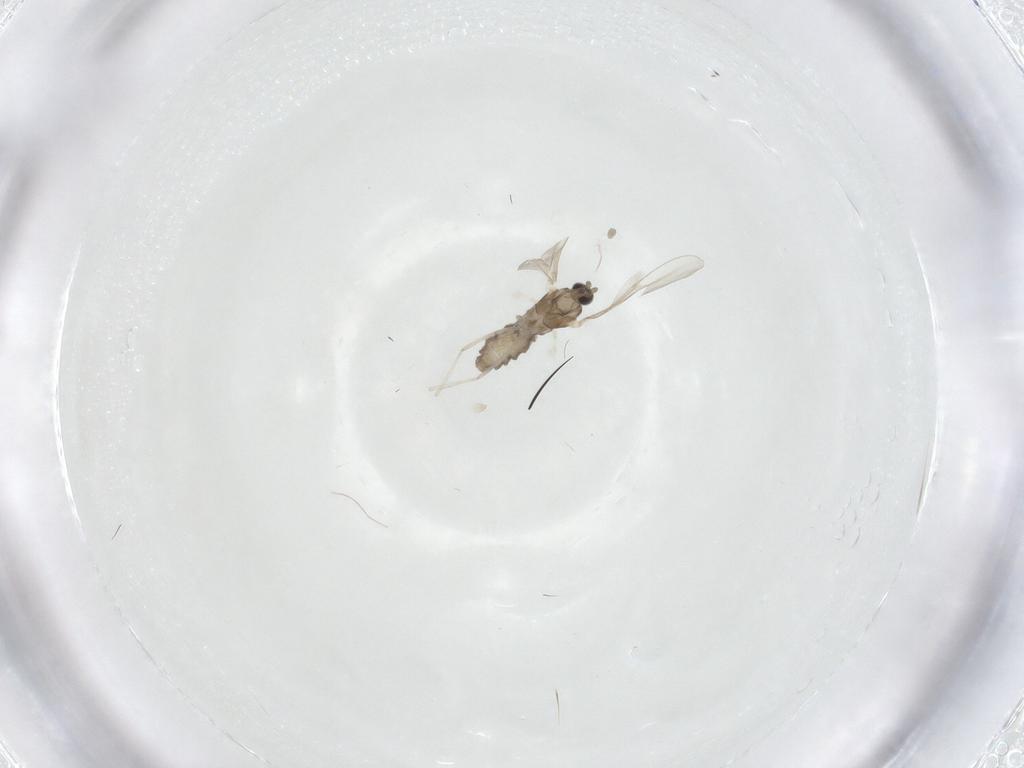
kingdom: Animalia
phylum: Arthropoda
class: Insecta
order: Diptera
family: Cecidomyiidae
